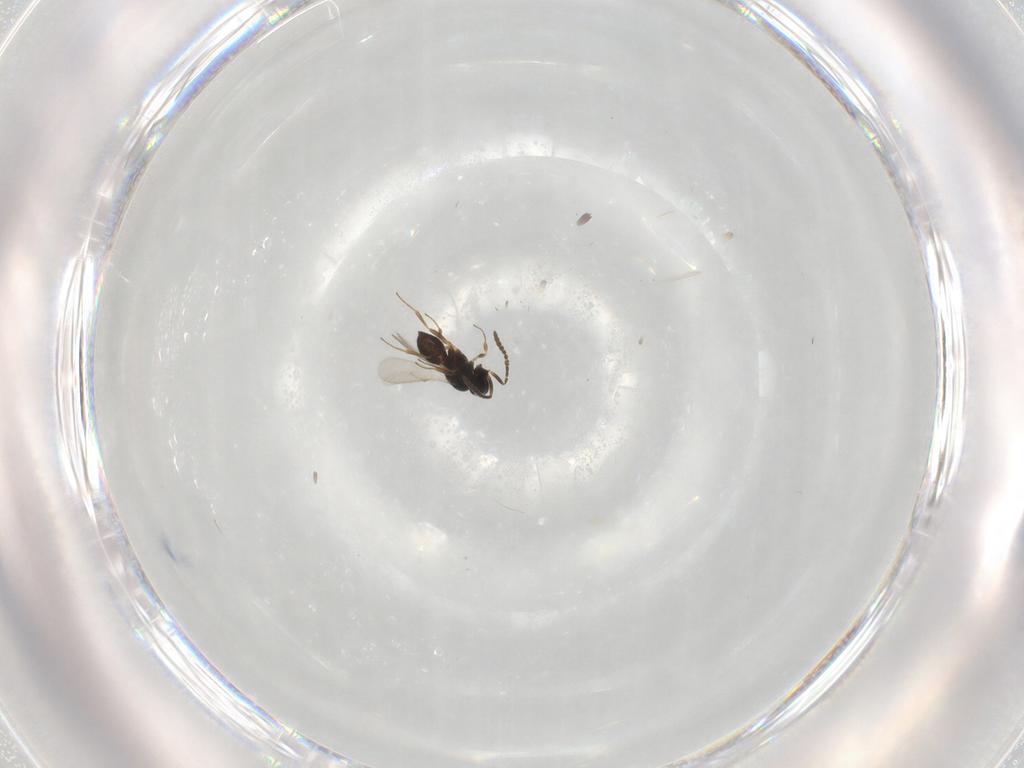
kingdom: Animalia
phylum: Arthropoda
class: Insecta
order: Hymenoptera
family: Scelionidae
